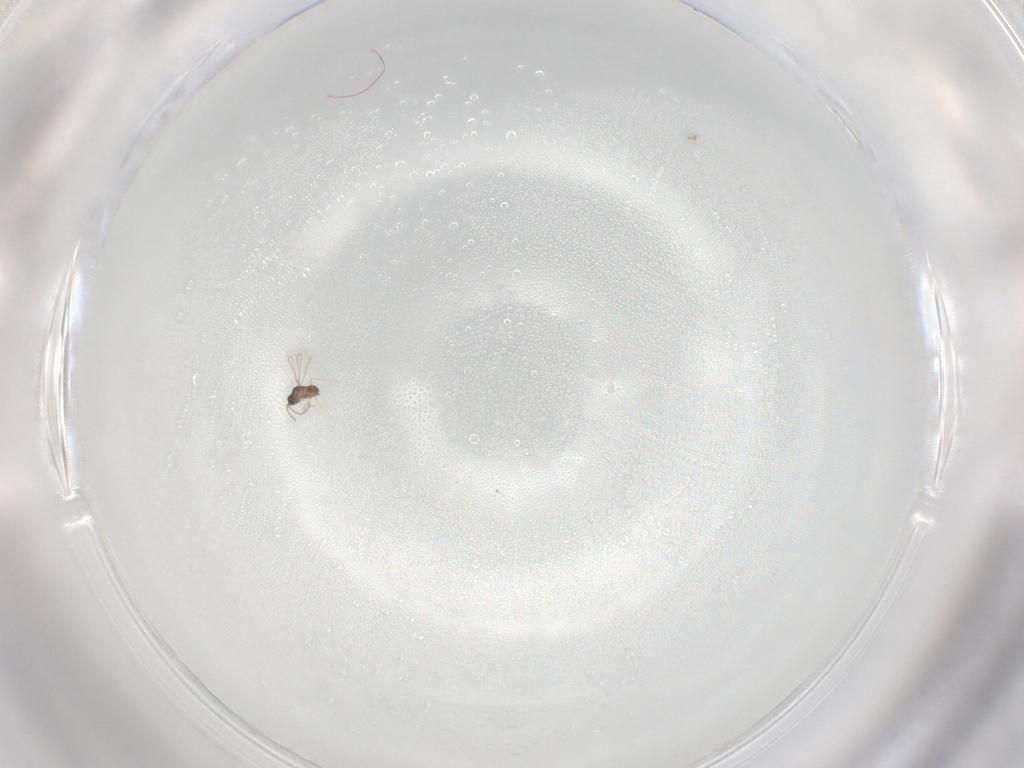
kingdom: Animalia
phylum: Arthropoda
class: Insecta
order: Hymenoptera
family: Mymaridae
